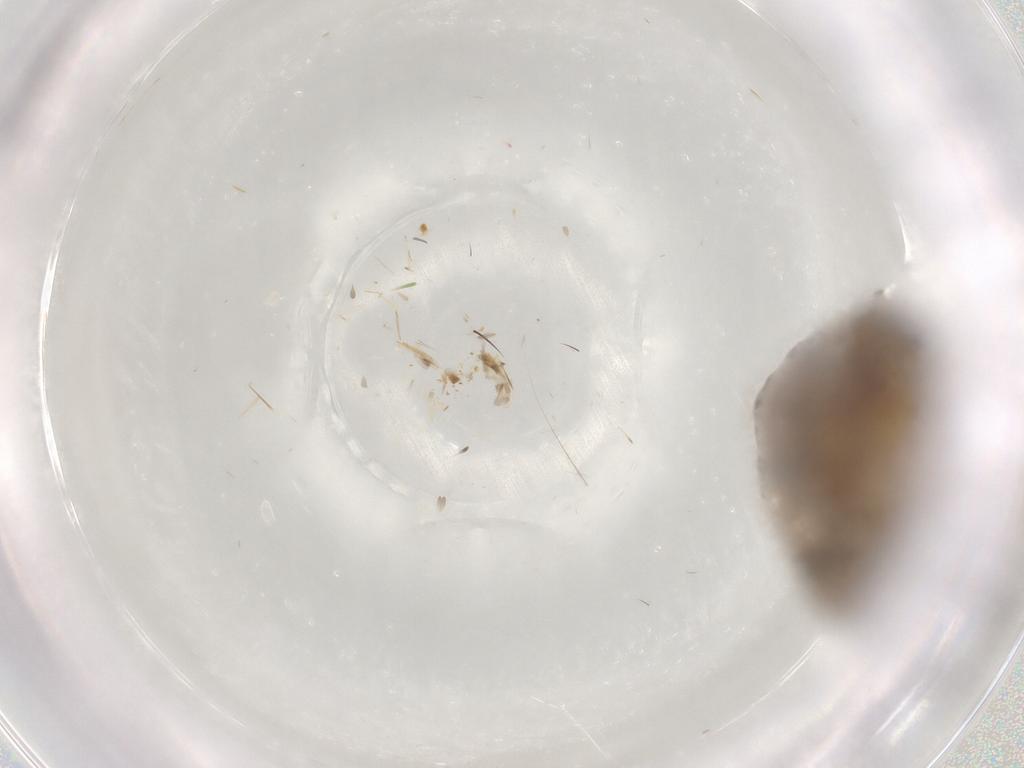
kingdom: Animalia
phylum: Arthropoda
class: Insecta
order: Lepidoptera
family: Glyphipterigidae
